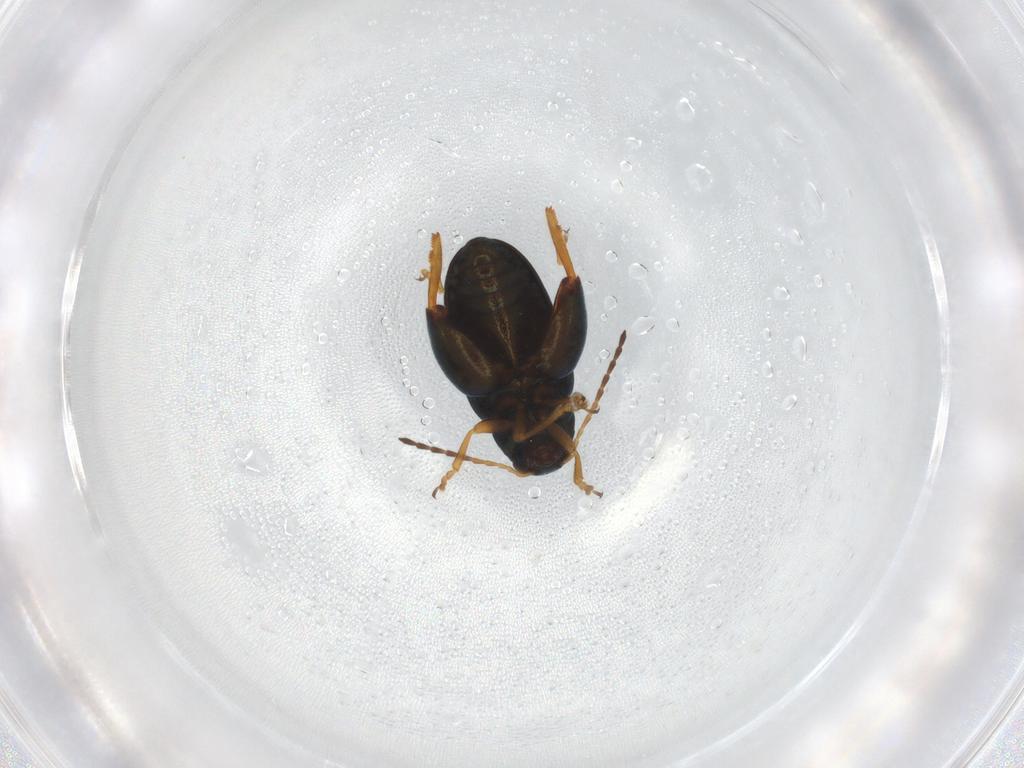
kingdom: Animalia
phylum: Arthropoda
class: Insecta
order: Coleoptera
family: Chrysomelidae
